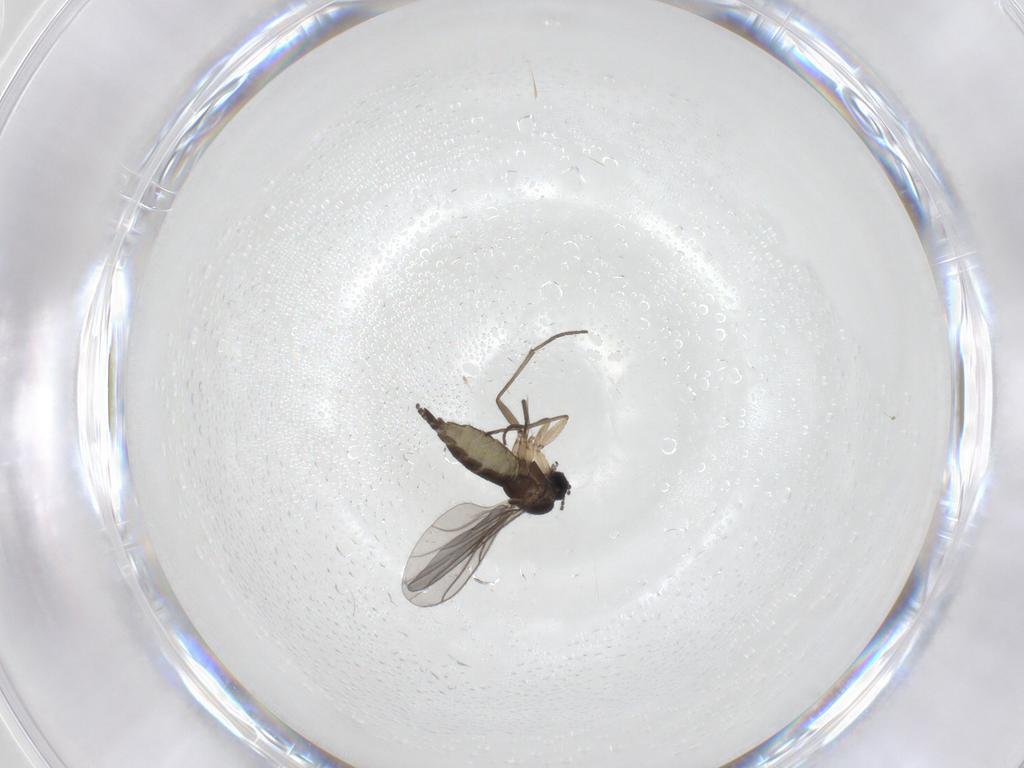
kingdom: Animalia
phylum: Arthropoda
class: Insecta
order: Diptera
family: Sciaridae
